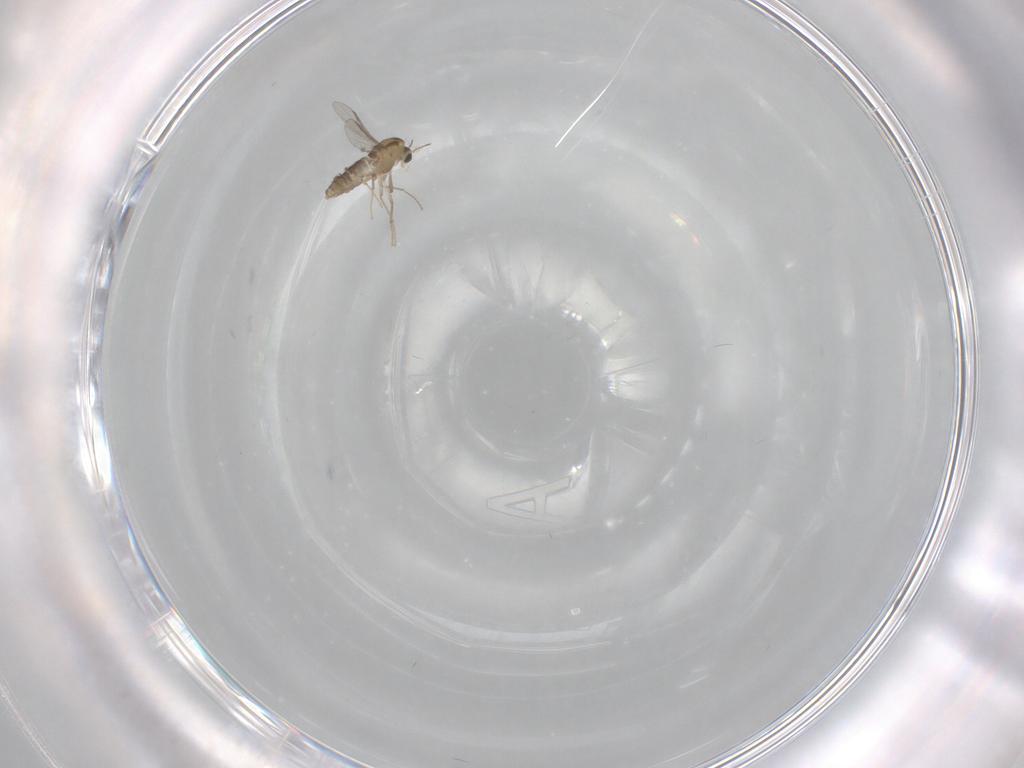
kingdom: Animalia
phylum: Arthropoda
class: Insecta
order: Diptera
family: Chironomidae
